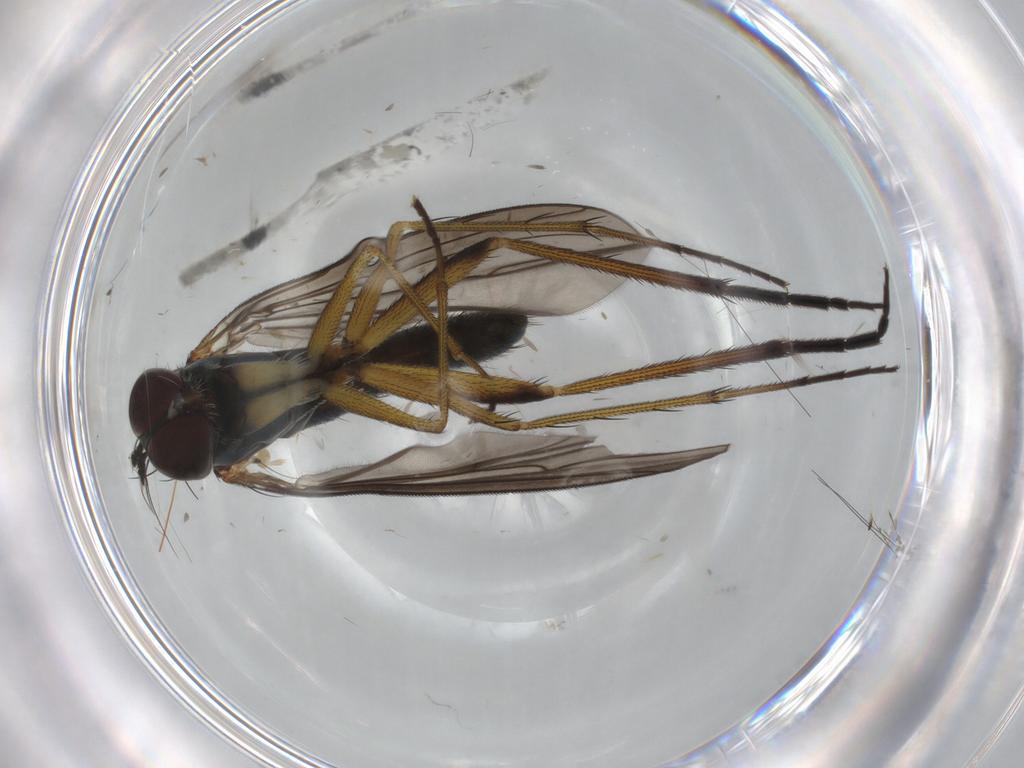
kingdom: Animalia
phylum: Arthropoda
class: Insecta
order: Diptera
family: Dolichopodidae
